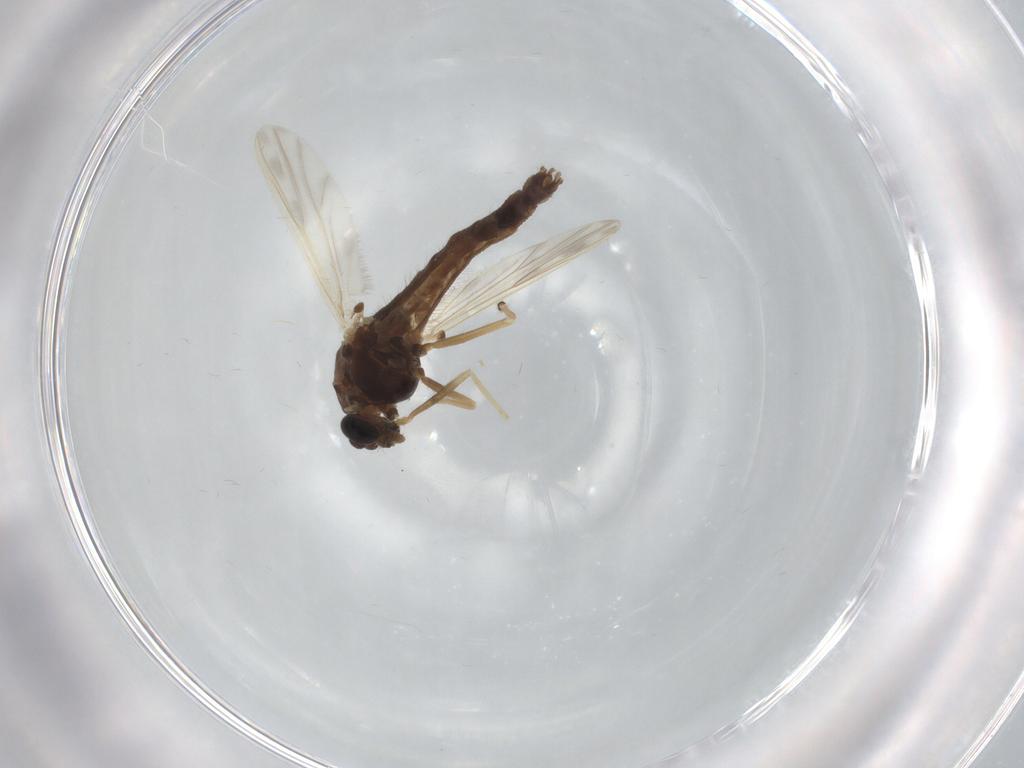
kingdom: Animalia
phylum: Arthropoda
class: Insecta
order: Diptera
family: Chironomidae
